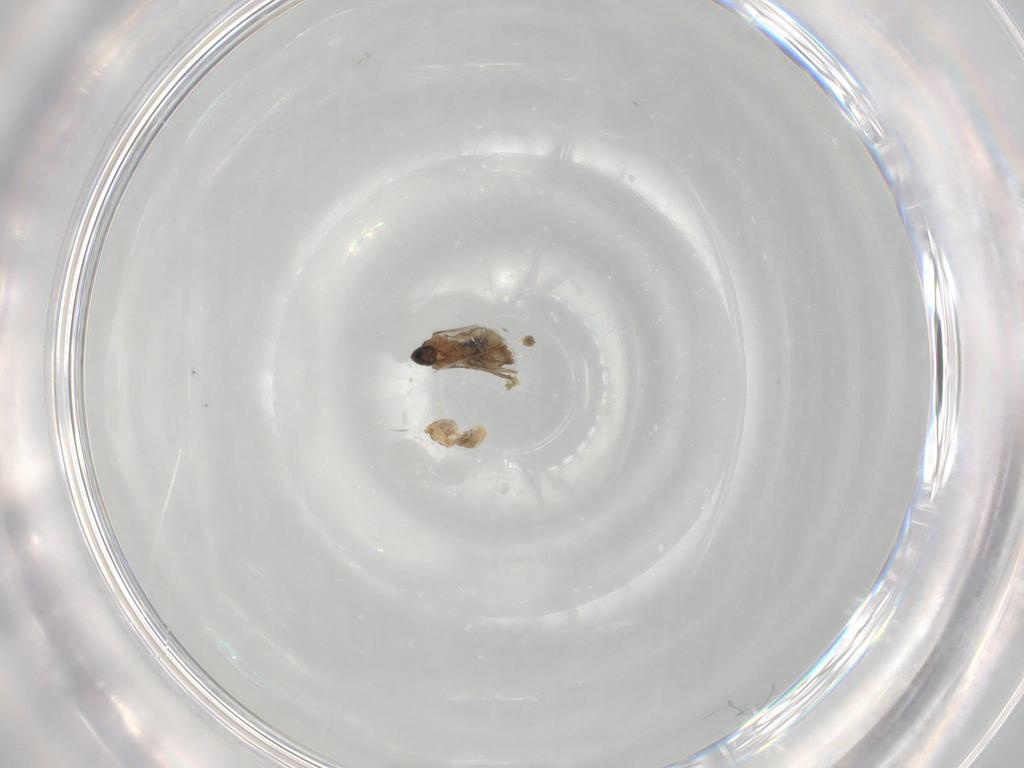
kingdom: Animalia
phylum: Arthropoda
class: Insecta
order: Diptera
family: Cecidomyiidae
